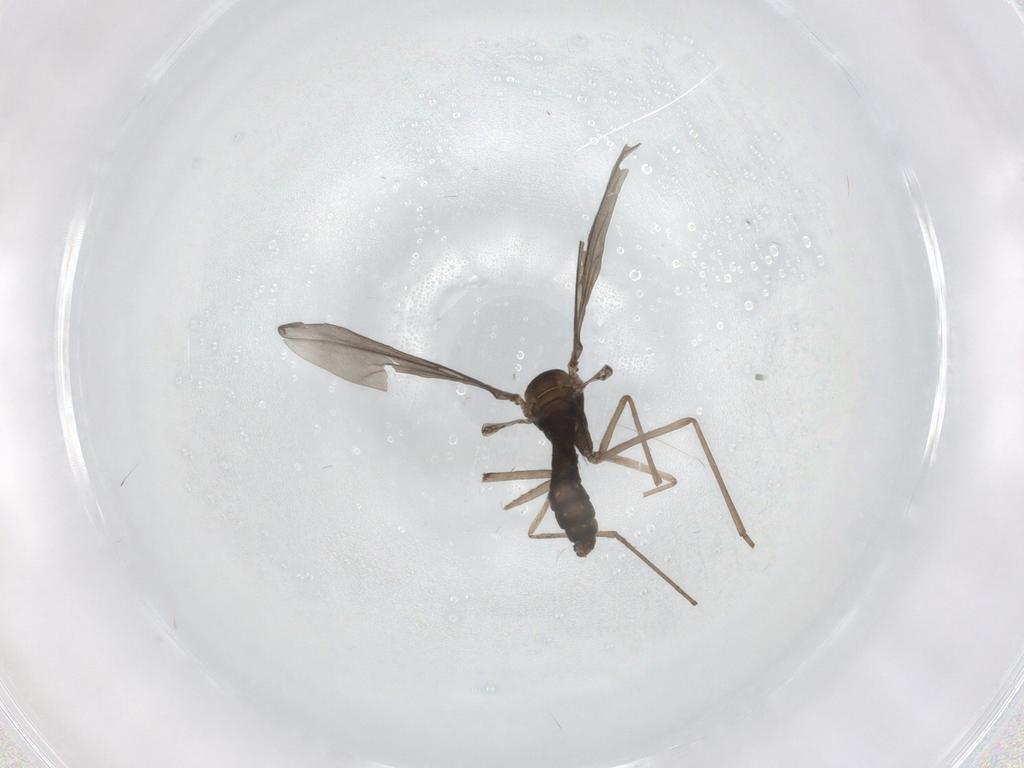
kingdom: Animalia
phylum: Arthropoda
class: Insecta
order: Diptera
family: Cecidomyiidae
